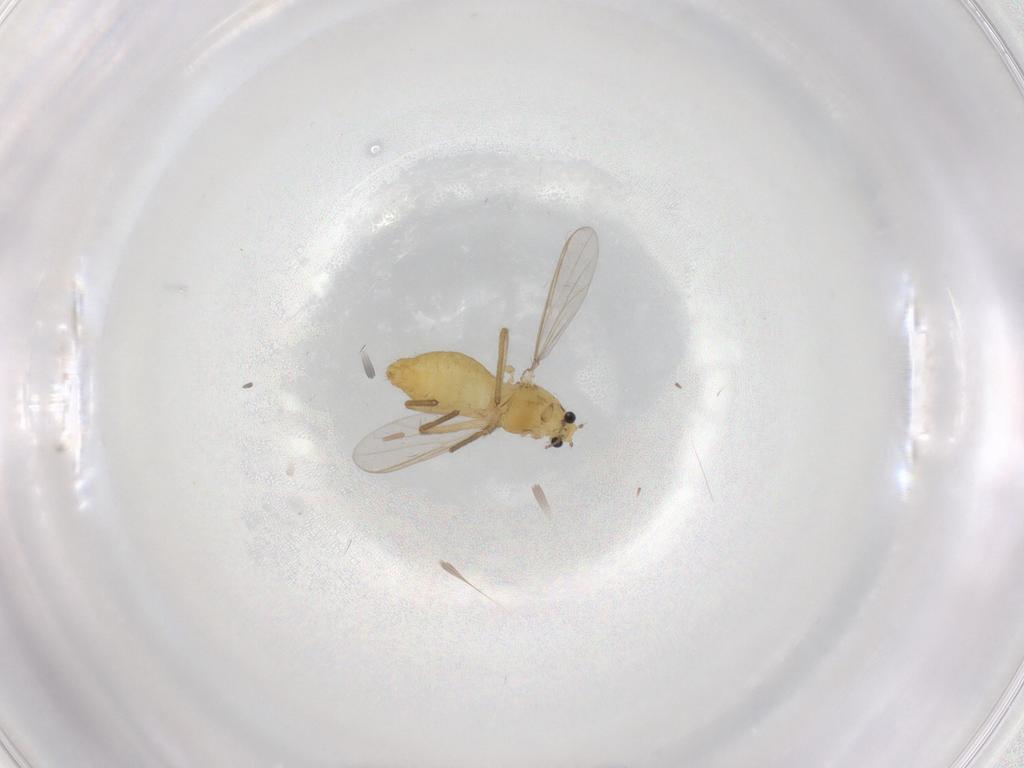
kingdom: Animalia
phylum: Arthropoda
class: Insecta
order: Diptera
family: Chironomidae
